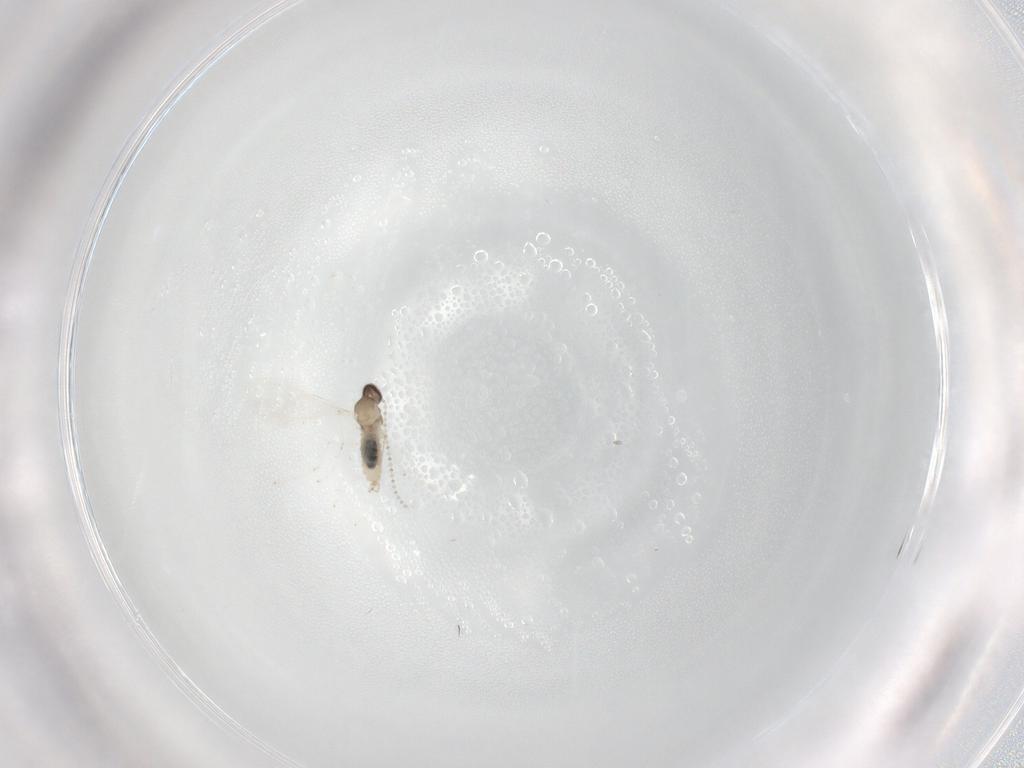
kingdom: Animalia
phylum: Arthropoda
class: Insecta
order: Diptera
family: Cecidomyiidae
